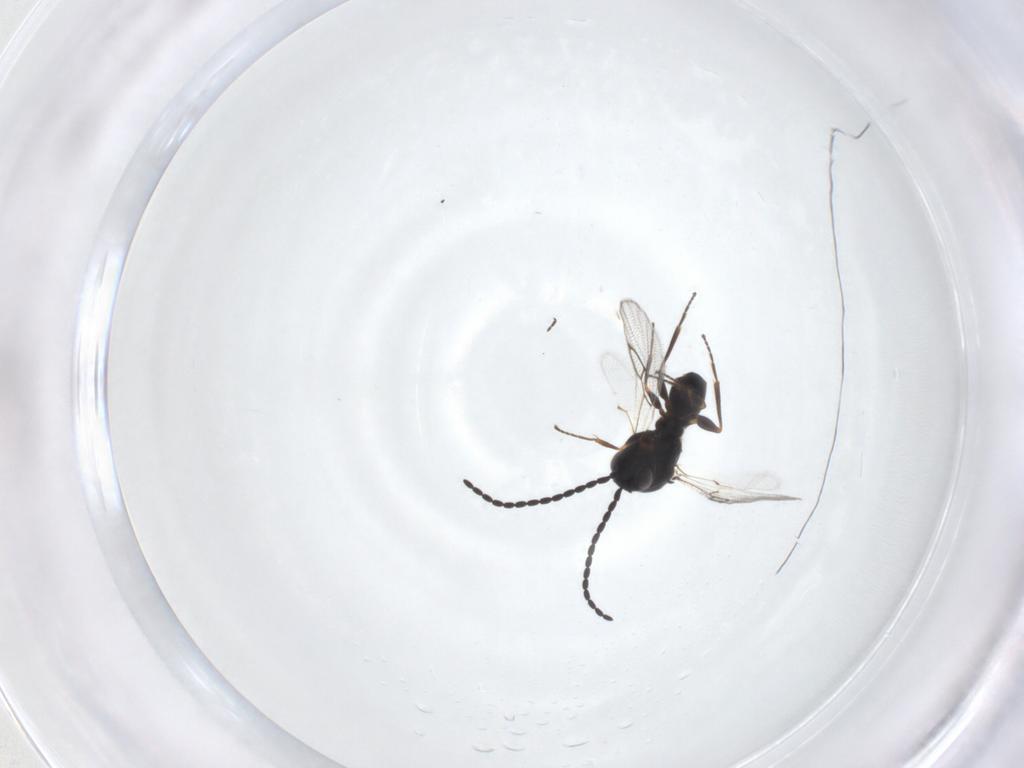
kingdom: Animalia
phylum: Arthropoda
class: Insecta
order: Hymenoptera
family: Figitidae
